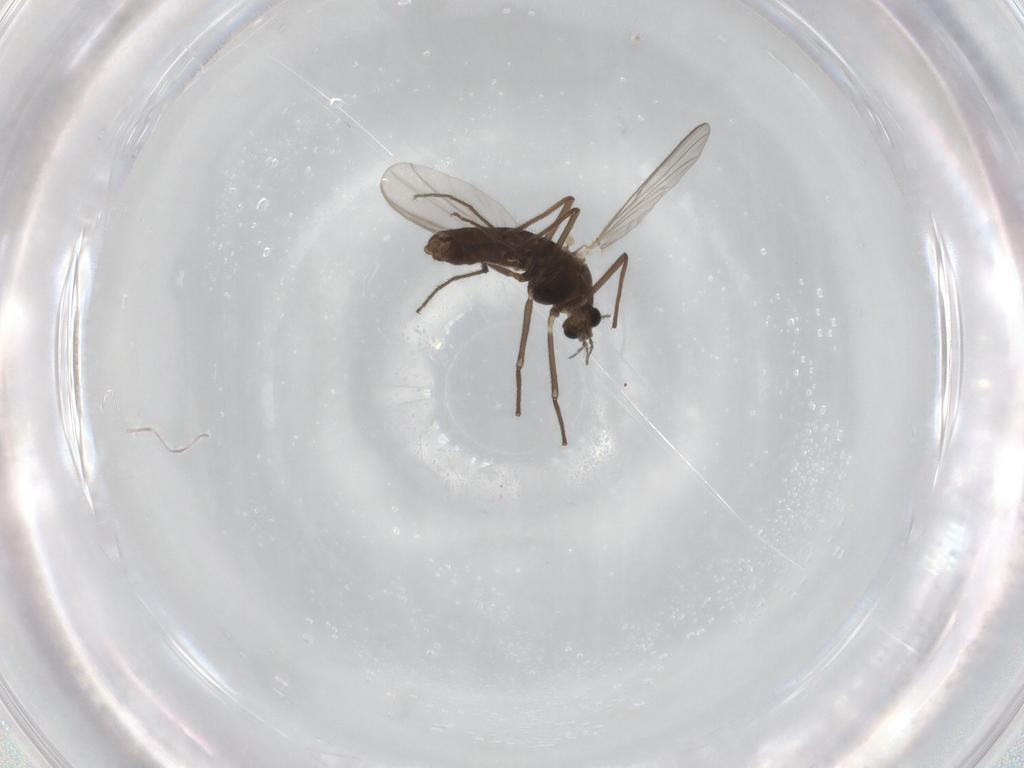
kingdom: Animalia
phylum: Arthropoda
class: Insecta
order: Diptera
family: Chironomidae
